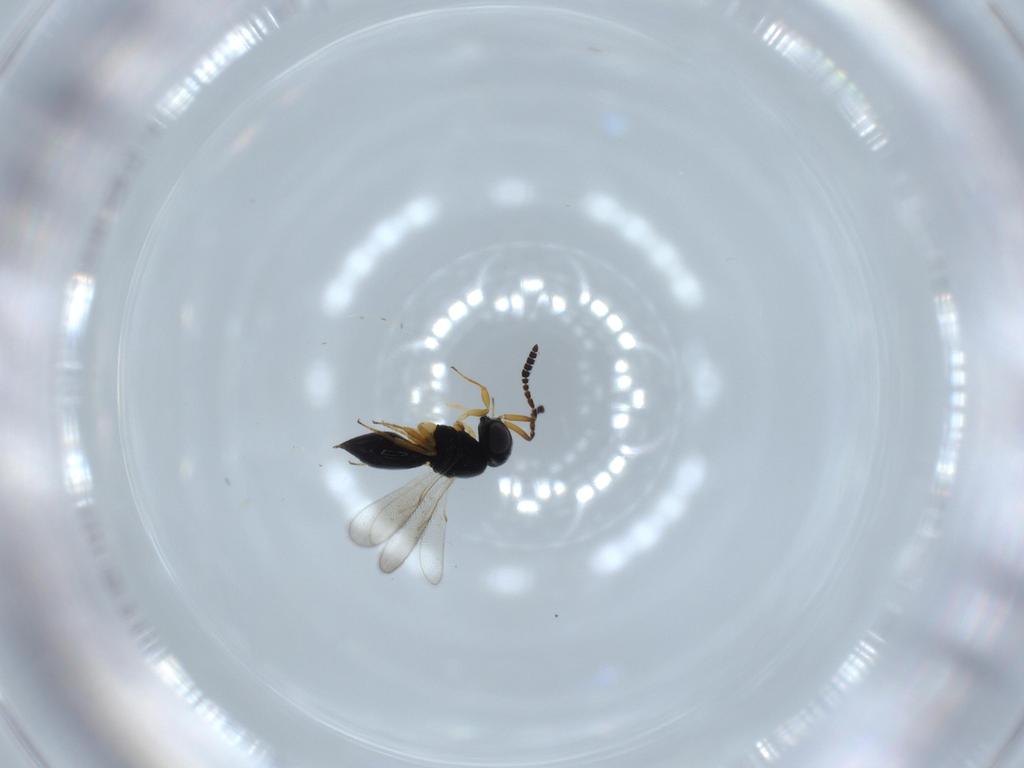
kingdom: Animalia
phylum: Arthropoda
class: Insecta
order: Hymenoptera
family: Scelionidae
